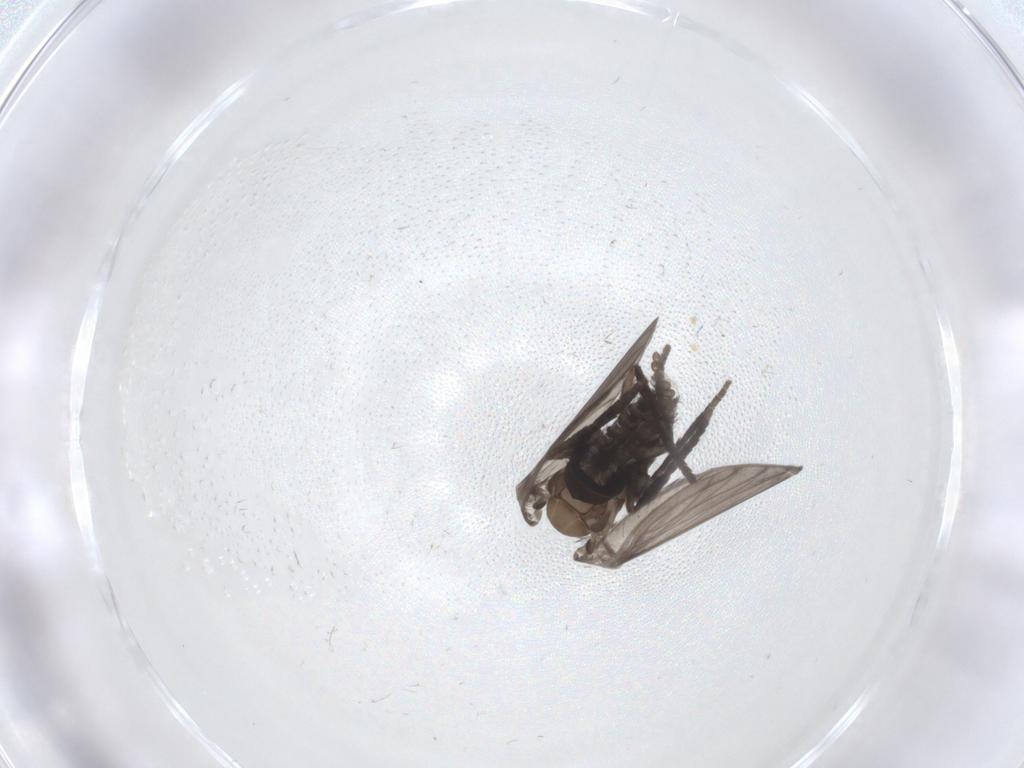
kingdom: Animalia
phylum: Arthropoda
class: Insecta
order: Diptera
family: Psychodidae
